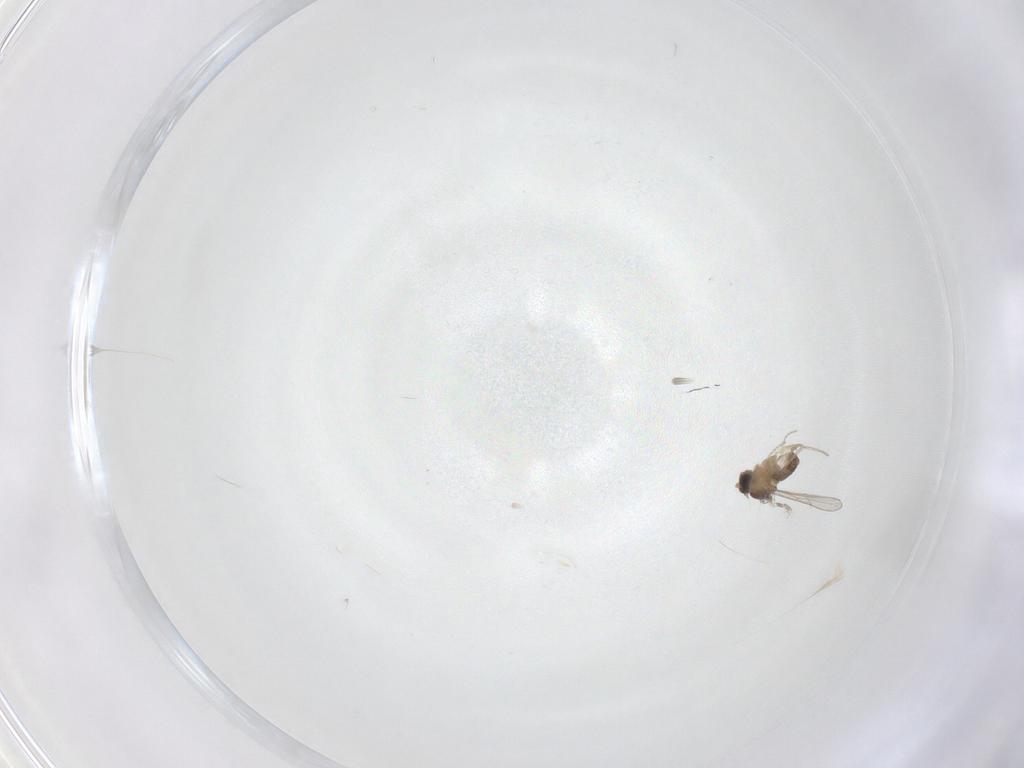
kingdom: Animalia
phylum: Arthropoda
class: Insecta
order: Diptera
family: Cecidomyiidae
